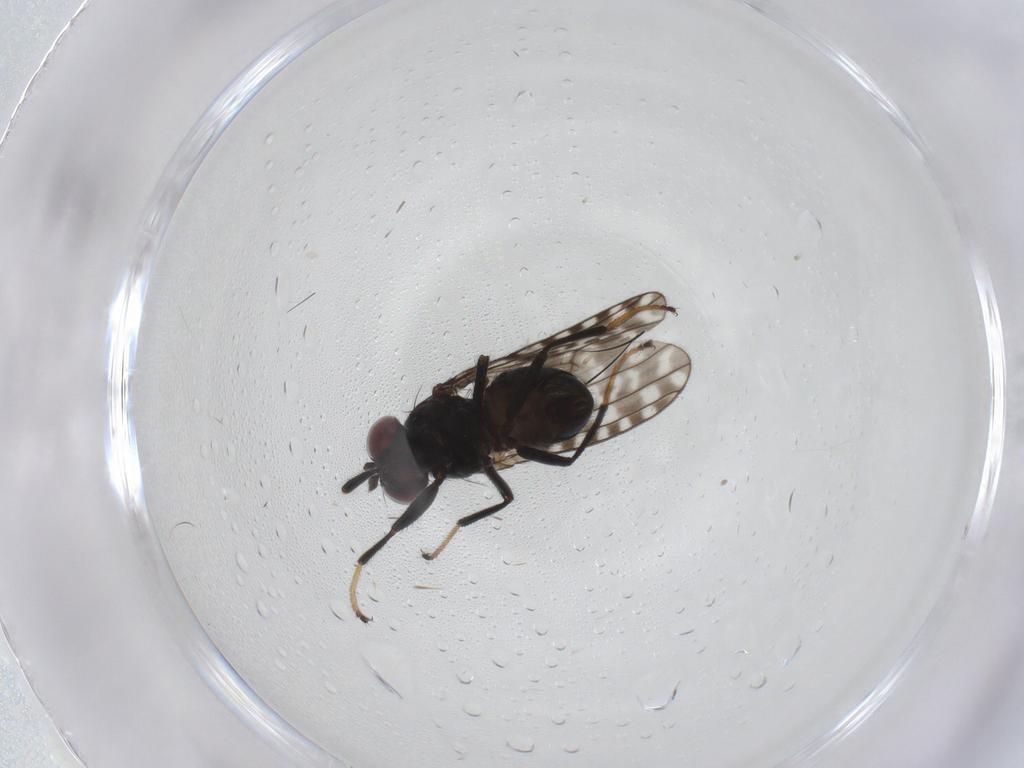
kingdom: Animalia
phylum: Arthropoda
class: Insecta
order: Diptera
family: Ephydridae
